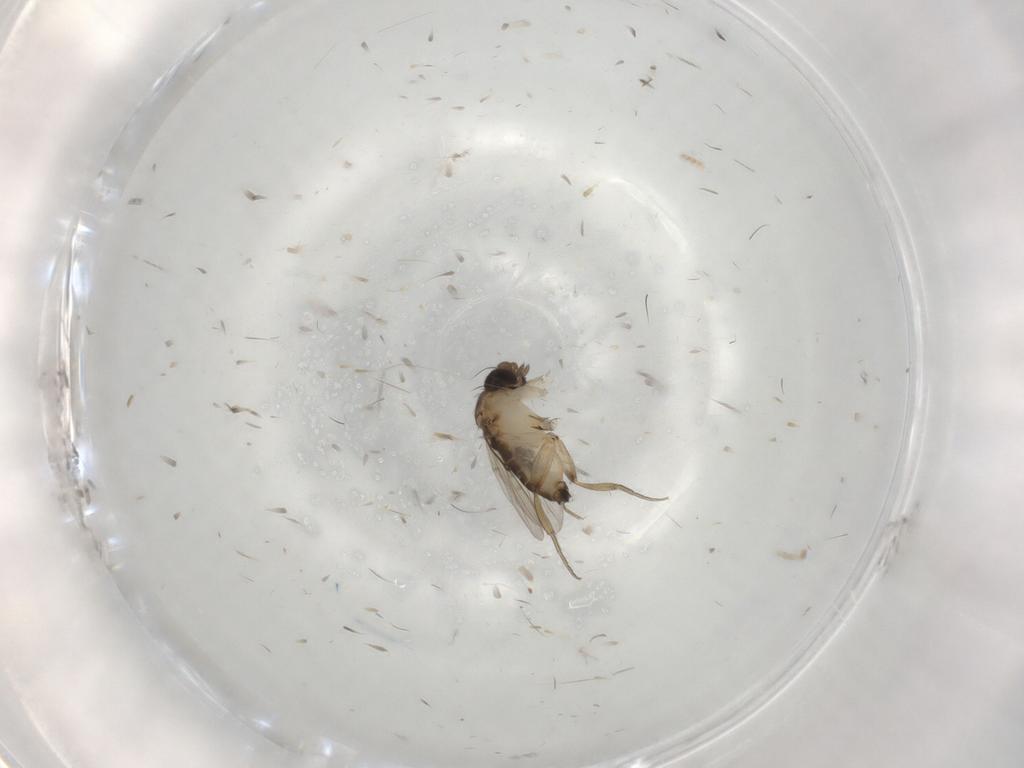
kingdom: Animalia
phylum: Arthropoda
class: Insecta
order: Diptera
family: Phoridae
